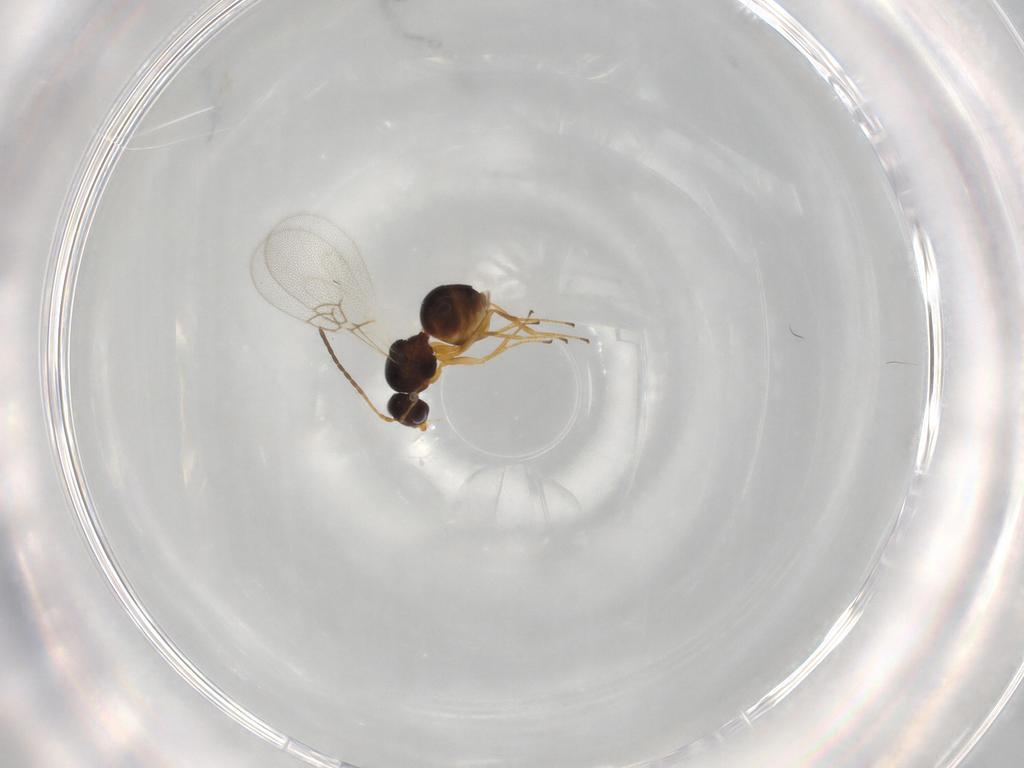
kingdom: Animalia
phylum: Arthropoda
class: Insecta
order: Hymenoptera
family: Figitidae
